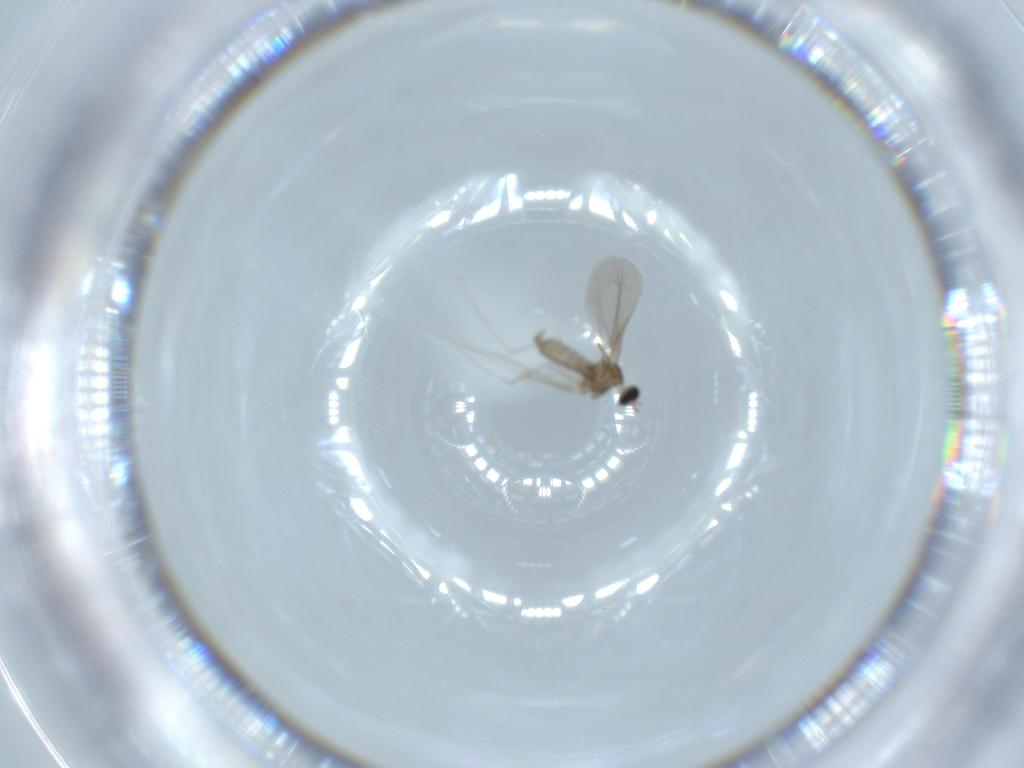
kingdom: Animalia
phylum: Arthropoda
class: Insecta
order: Diptera
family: Cecidomyiidae
